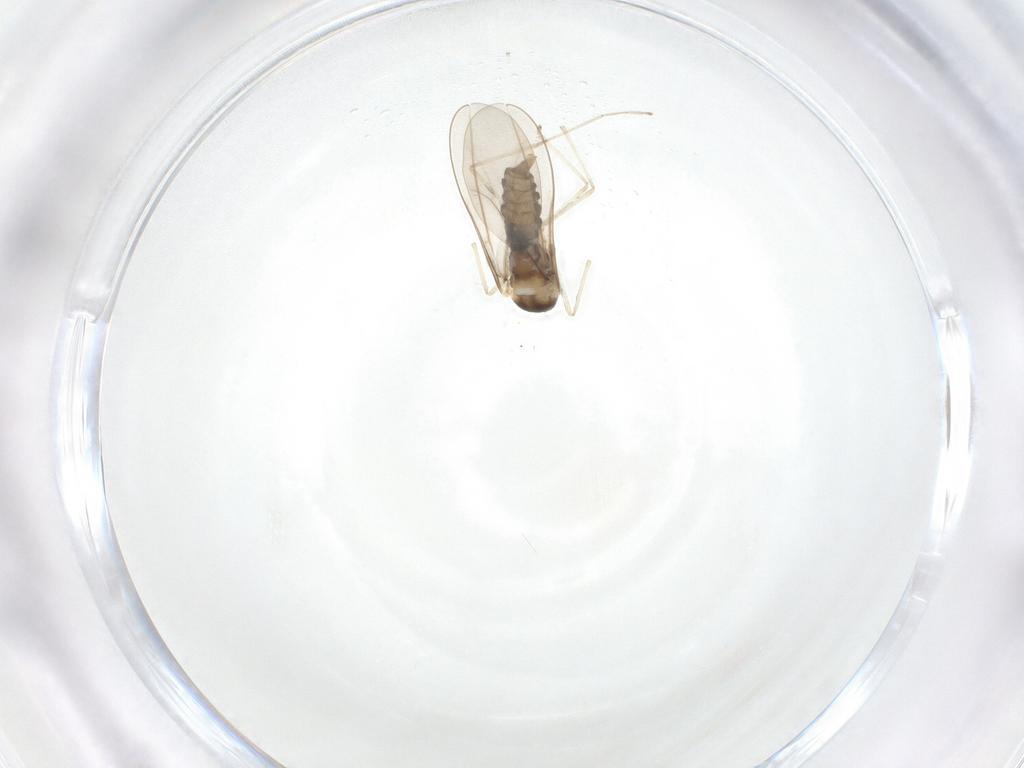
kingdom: Animalia
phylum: Arthropoda
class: Insecta
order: Diptera
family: Cecidomyiidae
